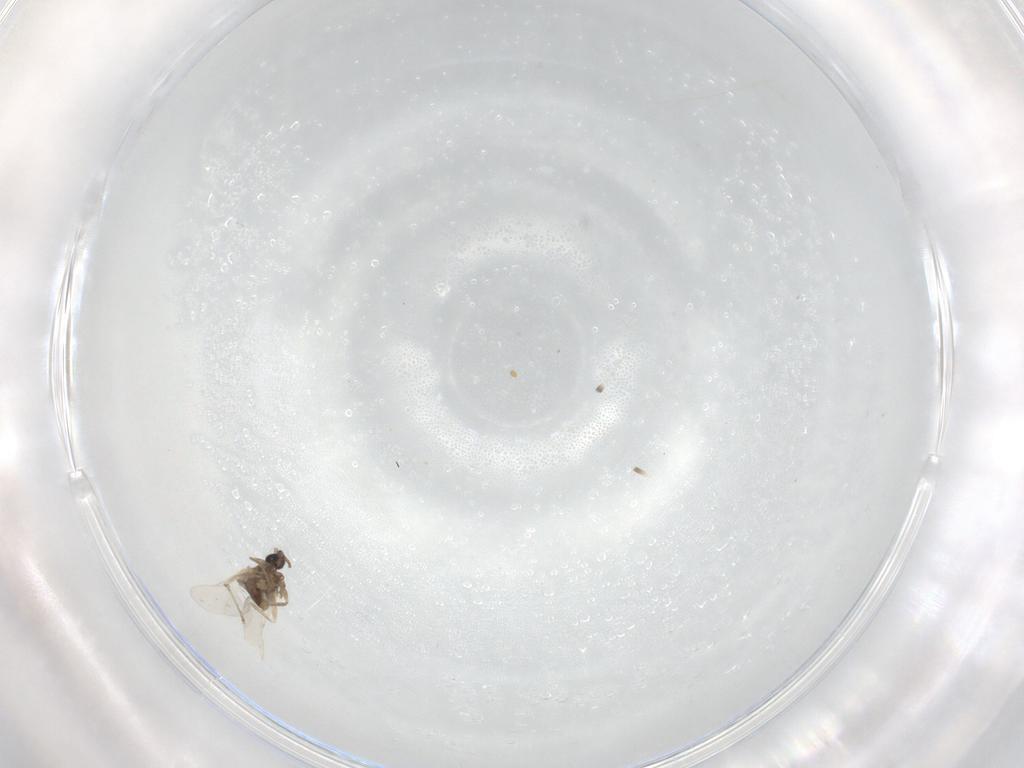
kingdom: Animalia
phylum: Arthropoda
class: Insecta
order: Diptera
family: Cecidomyiidae
